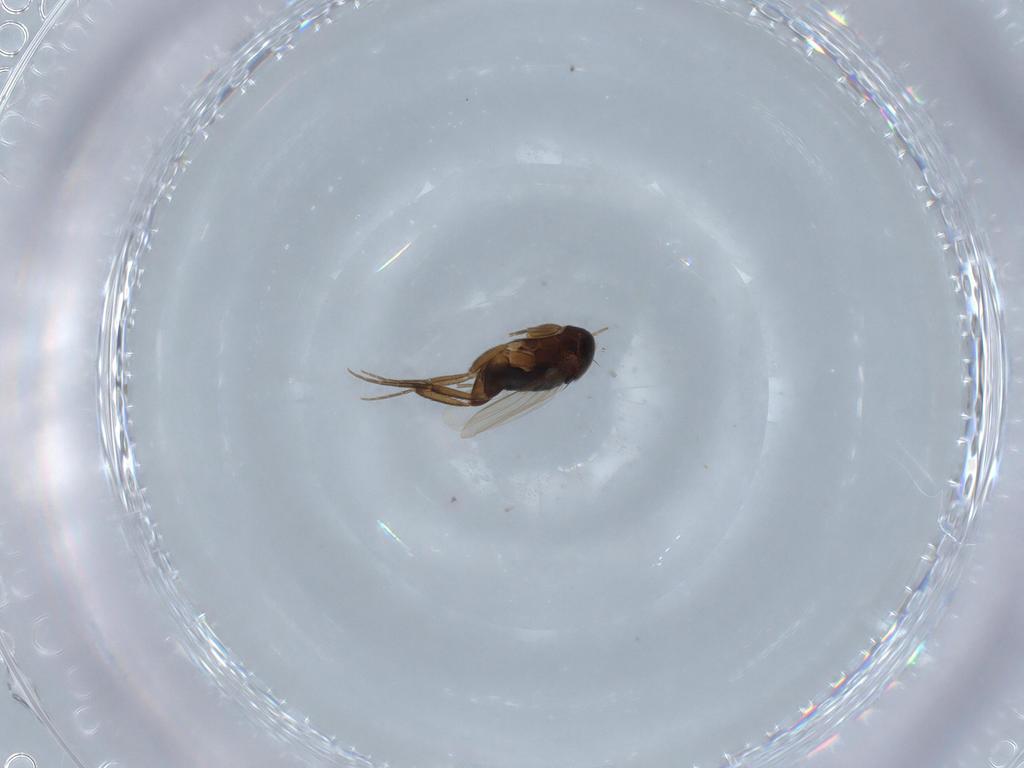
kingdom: Animalia
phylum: Arthropoda
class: Insecta
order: Diptera
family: Phoridae
